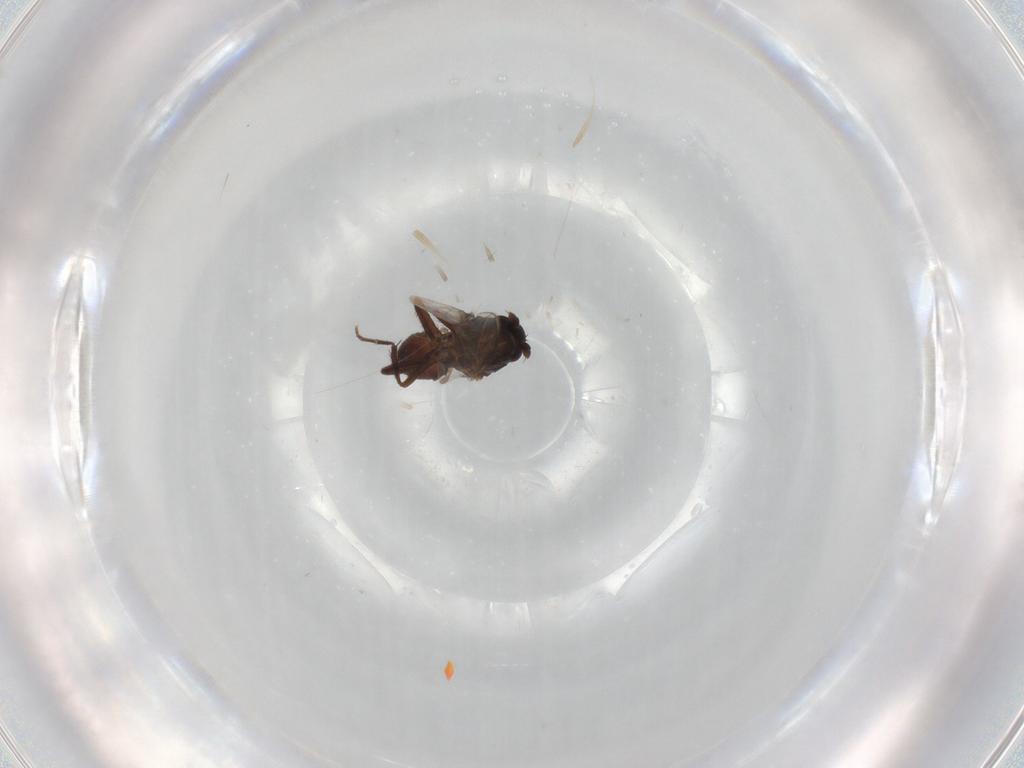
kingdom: Animalia
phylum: Arthropoda
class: Insecta
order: Diptera
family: Sphaeroceridae
